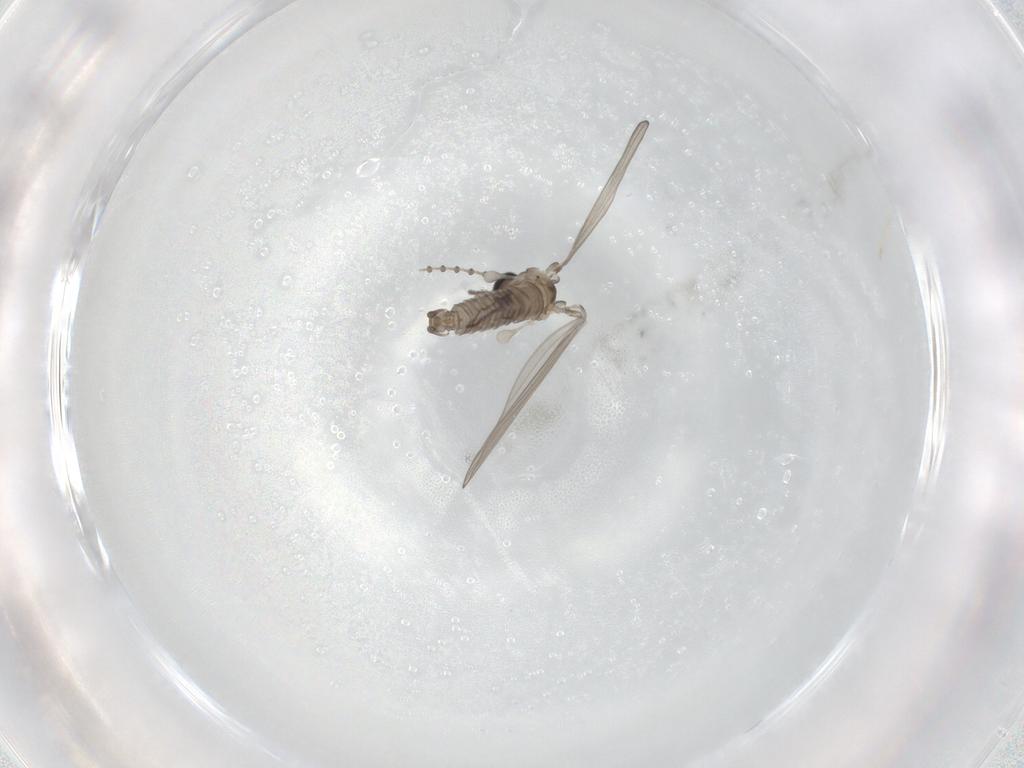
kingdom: Animalia
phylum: Arthropoda
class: Insecta
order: Diptera
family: Psychodidae
